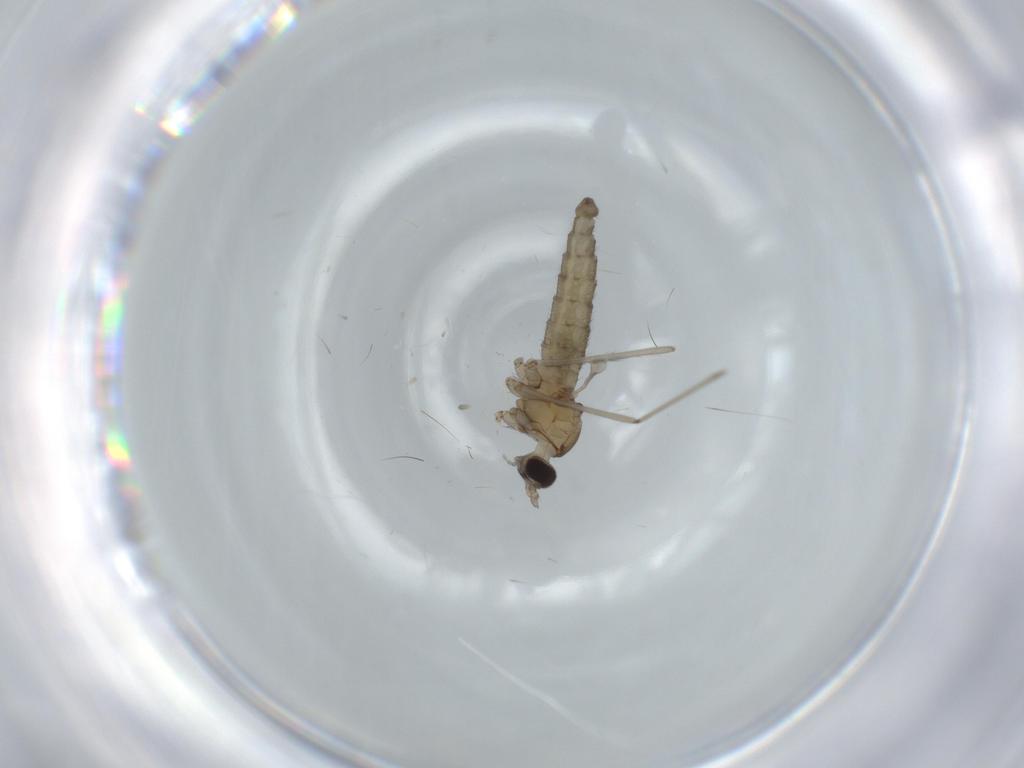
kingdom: Animalia
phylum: Arthropoda
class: Insecta
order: Diptera
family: Cecidomyiidae
